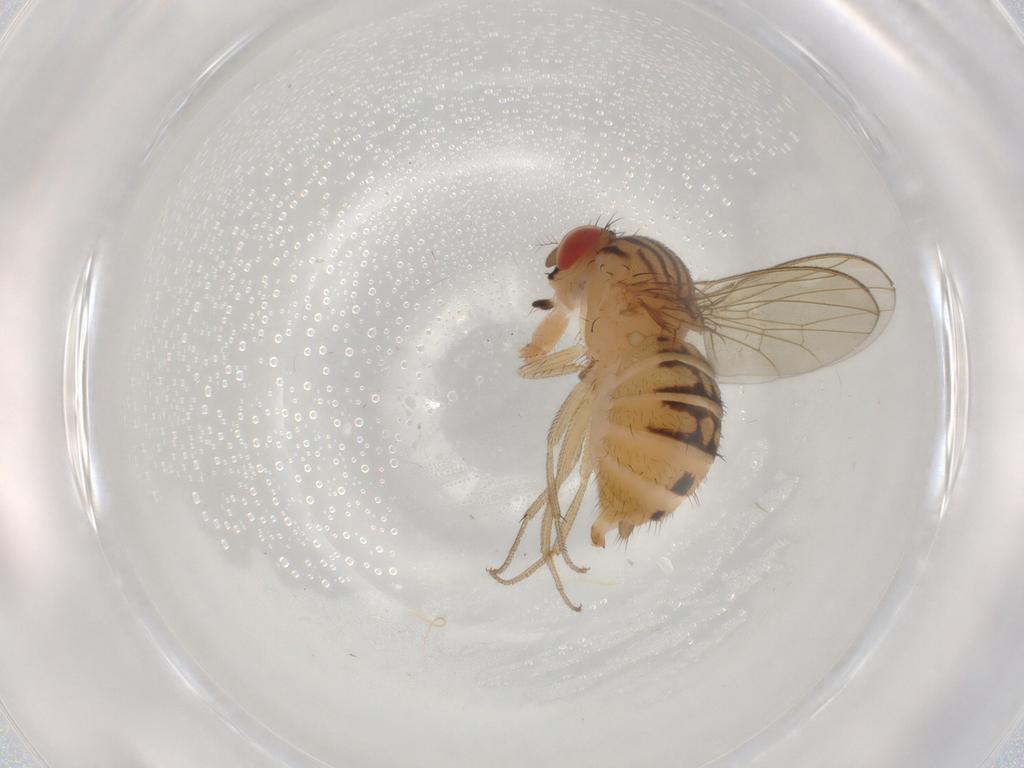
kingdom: Animalia
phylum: Arthropoda
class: Insecta
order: Diptera
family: Drosophilidae
